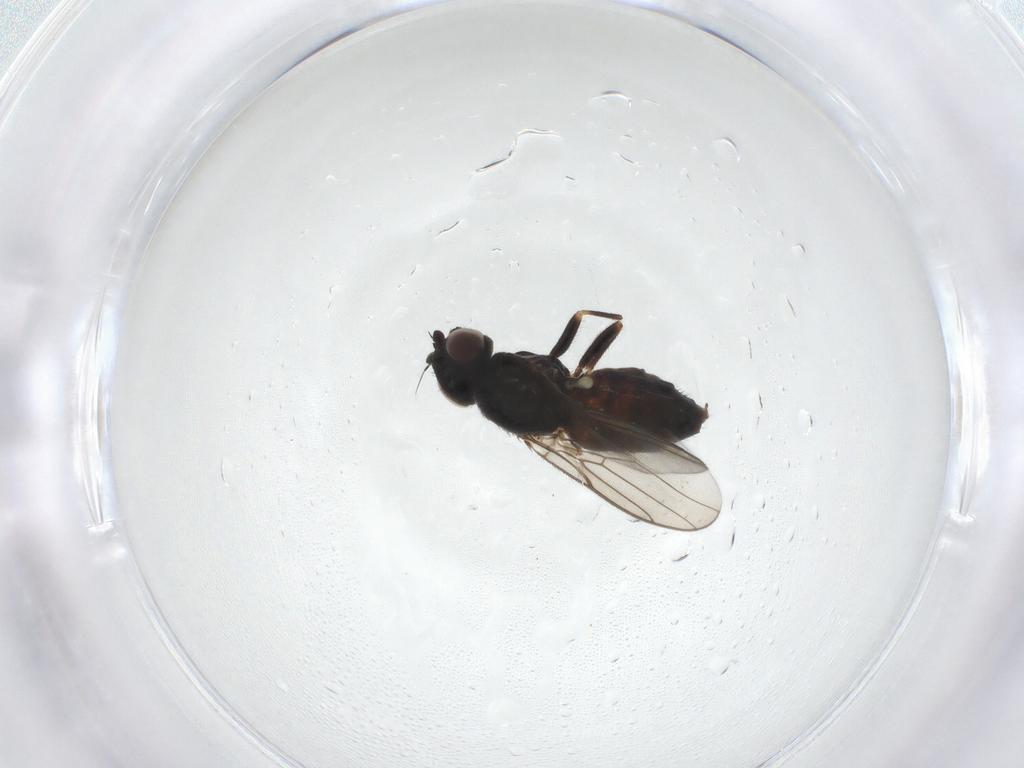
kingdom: Animalia
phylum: Arthropoda
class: Insecta
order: Diptera
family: Chloropidae
